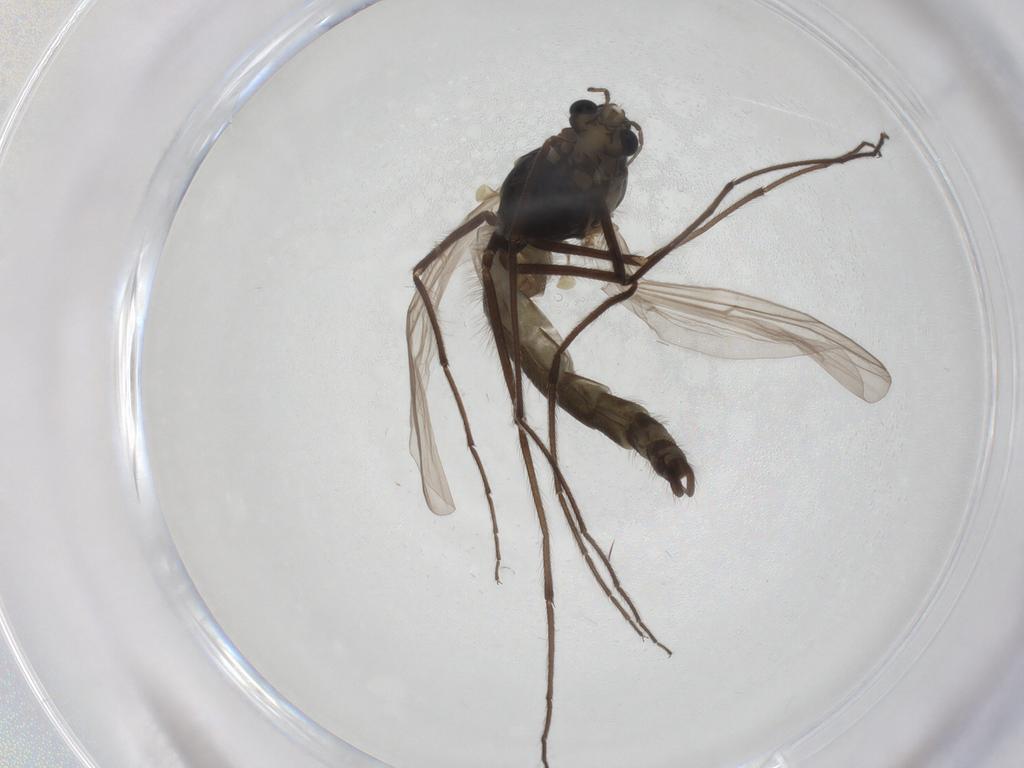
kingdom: Animalia
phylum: Arthropoda
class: Insecta
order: Diptera
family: Chironomidae
